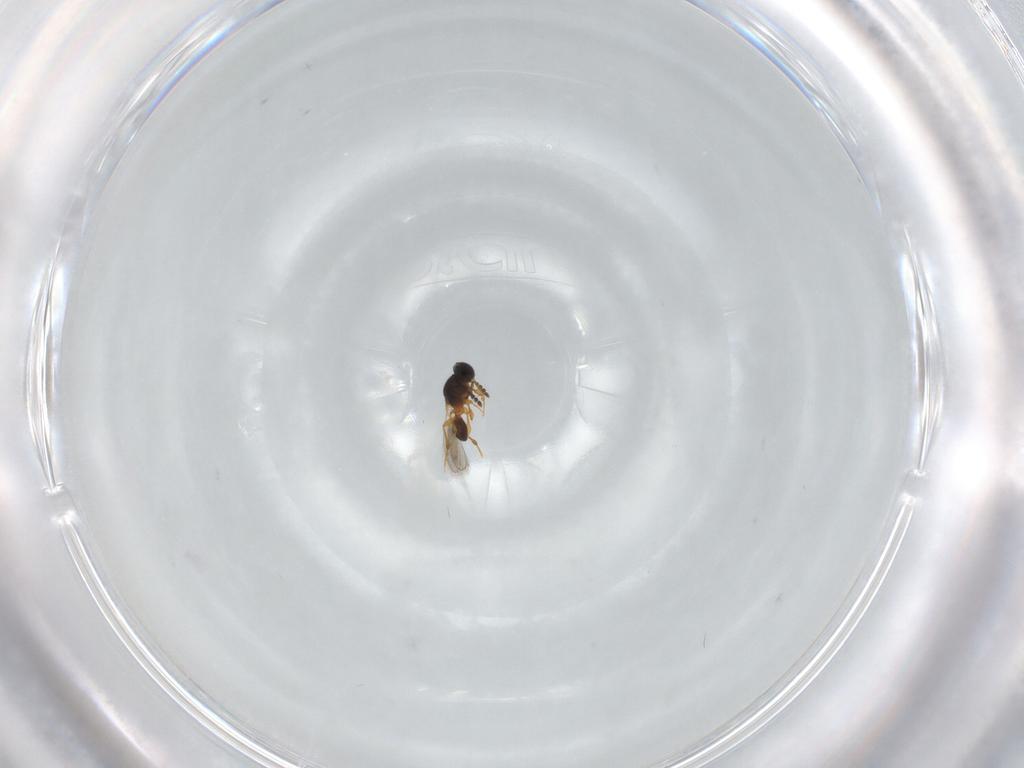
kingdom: Animalia
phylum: Arthropoda
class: Insecta
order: Hymenoptera
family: Platygastridae
